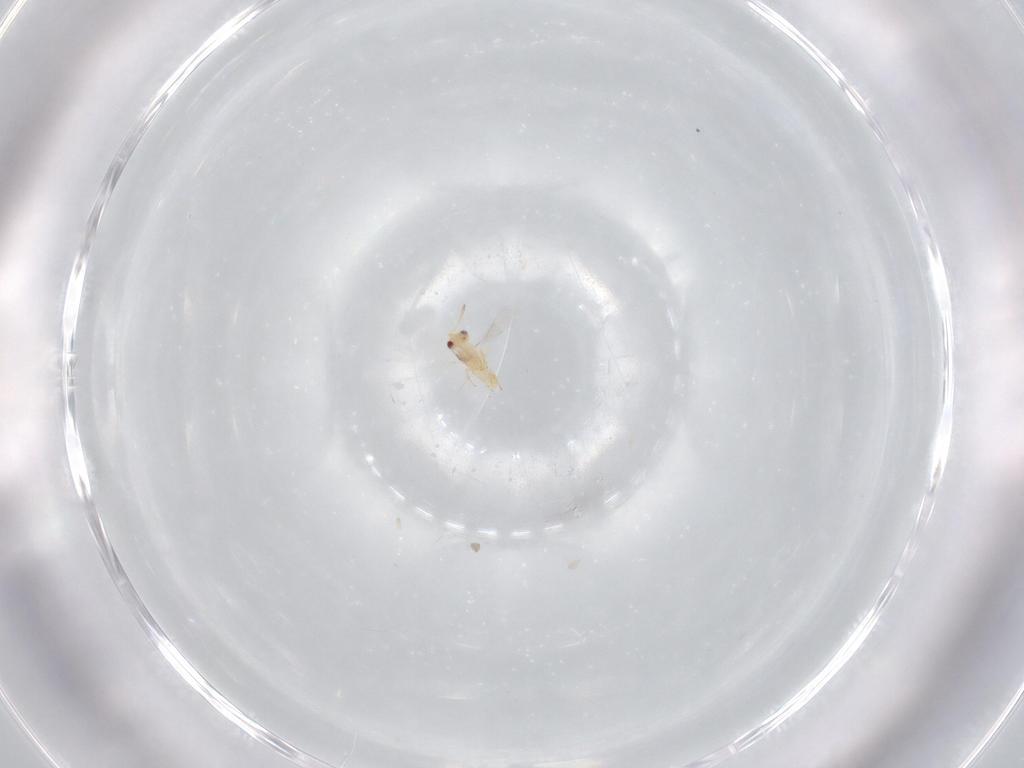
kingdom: Animalia
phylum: Arthropoda
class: Insecta
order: Hymenoptera
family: Aphelinidae
